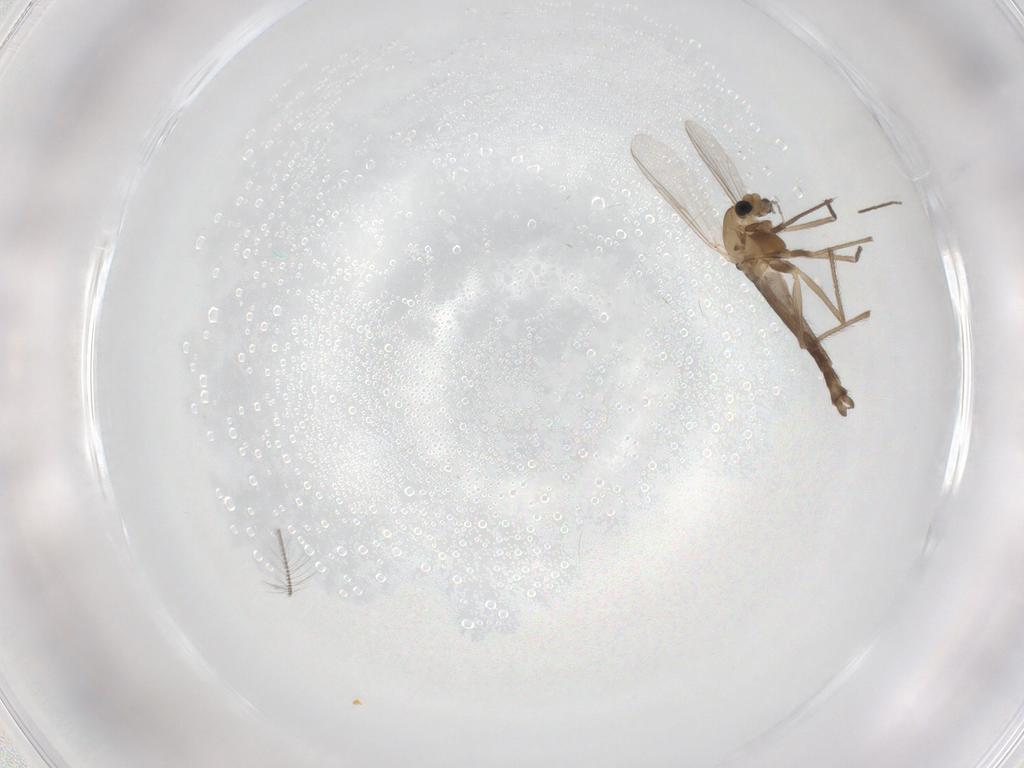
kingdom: Animalia
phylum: Arthropoda
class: Insecta
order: Diptera
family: Chironomidae
